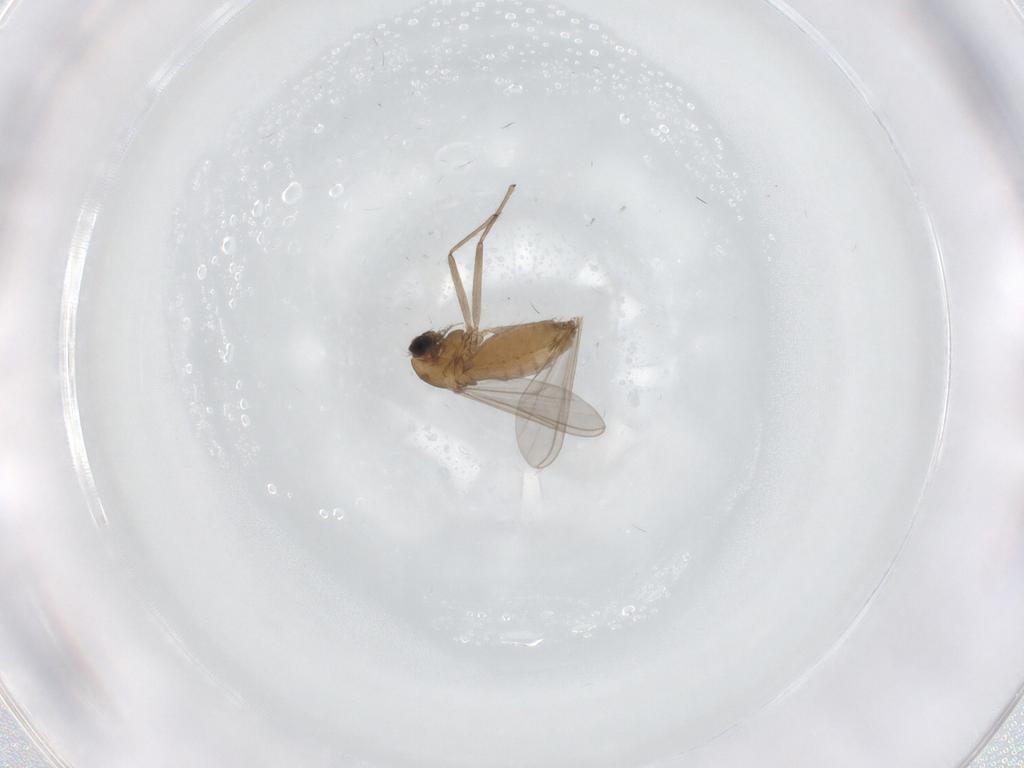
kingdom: Animalia
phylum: Arthropoda
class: Insecta
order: Diptera
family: Chironomidae
